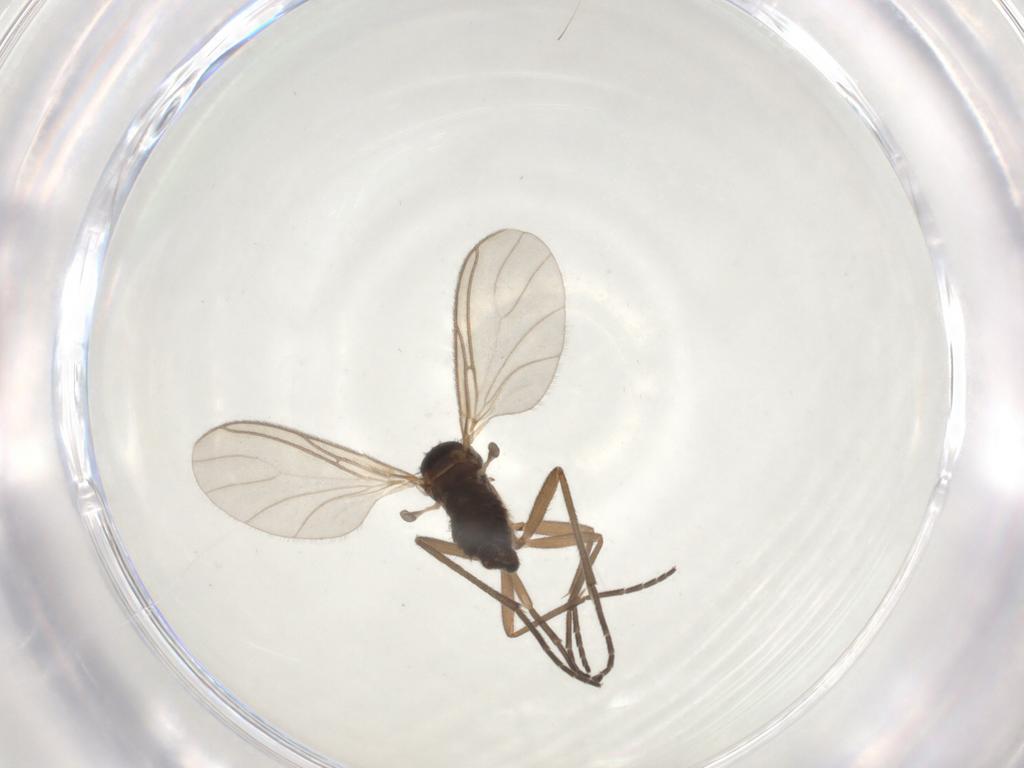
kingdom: Animalia
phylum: Arthropoda
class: Insecta
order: Diptera
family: Sciaridae
